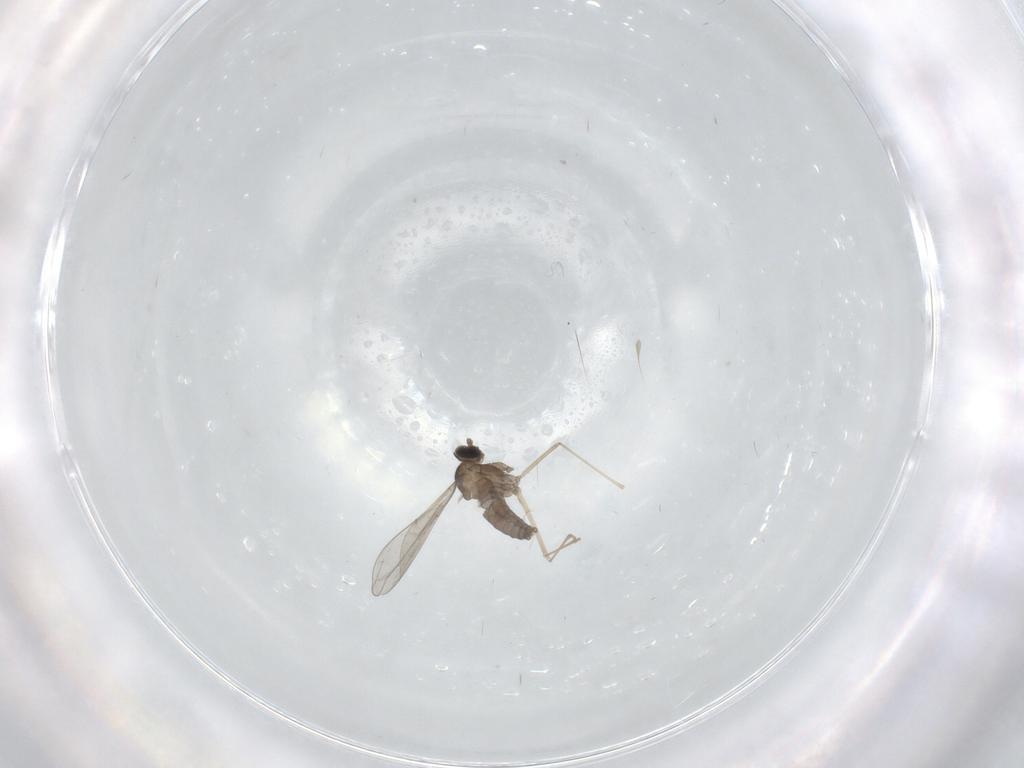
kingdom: Animalia
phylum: Arthropoda
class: Insecta
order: Diptera
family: Cecidomyiidae
